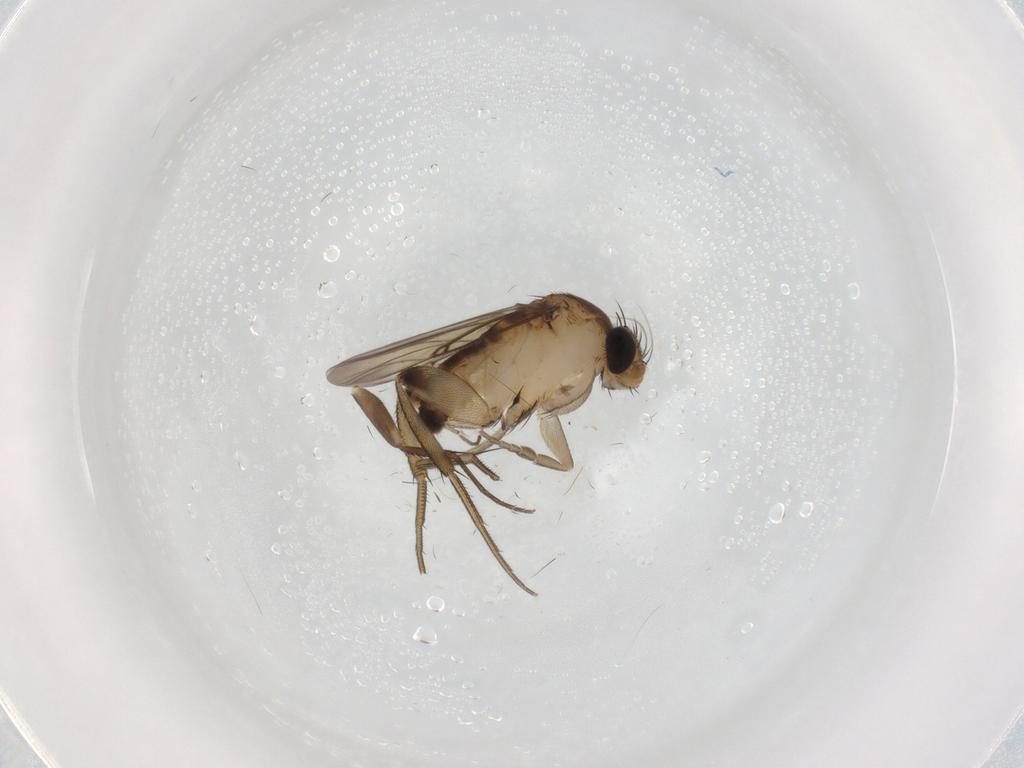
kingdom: Animalia
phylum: Arthropoda
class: Insecta
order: Diptera
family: Phoridae
